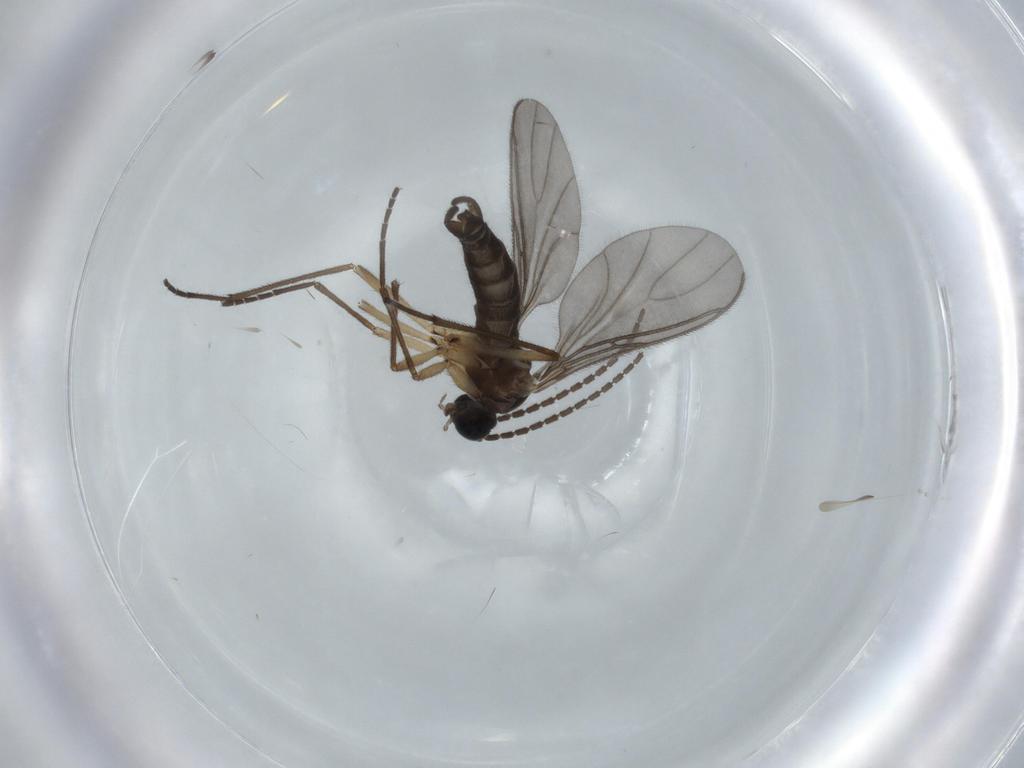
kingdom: Animalia
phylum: Arthropoda
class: Insecta
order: Diptera
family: Sciaridae
